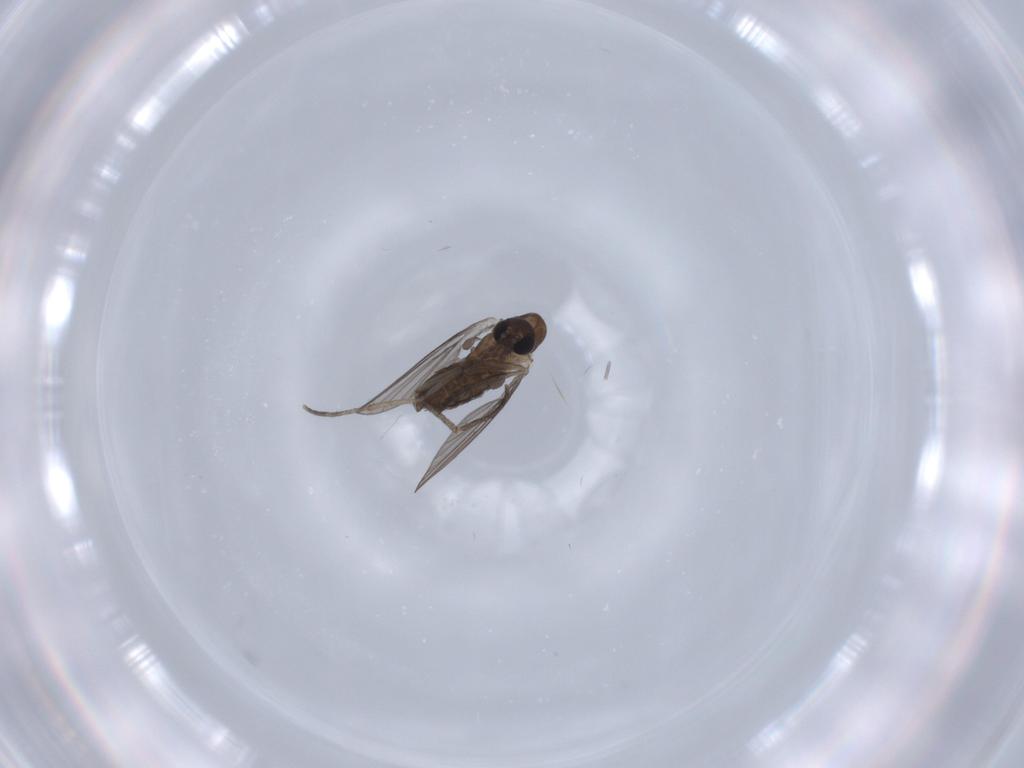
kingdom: Animalia
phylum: Arthropoda
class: Insecta
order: Diptera
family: Psychodidae
